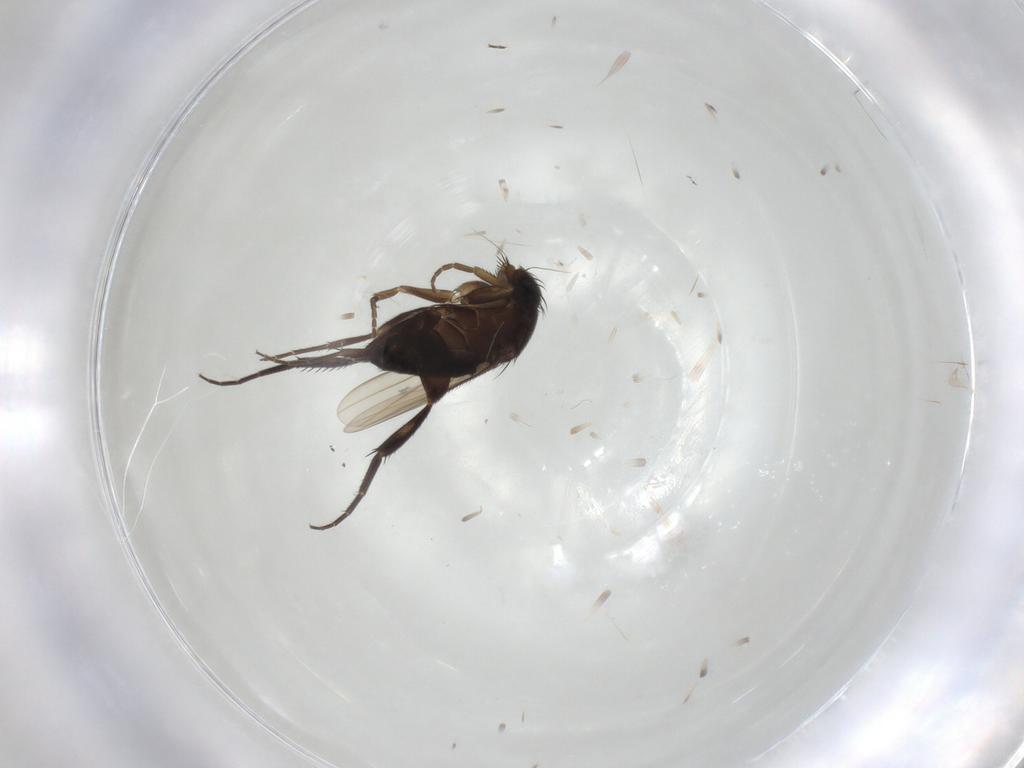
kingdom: Animalia
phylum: Arthropoda
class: Insecta
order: Diptera
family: Phoridae
